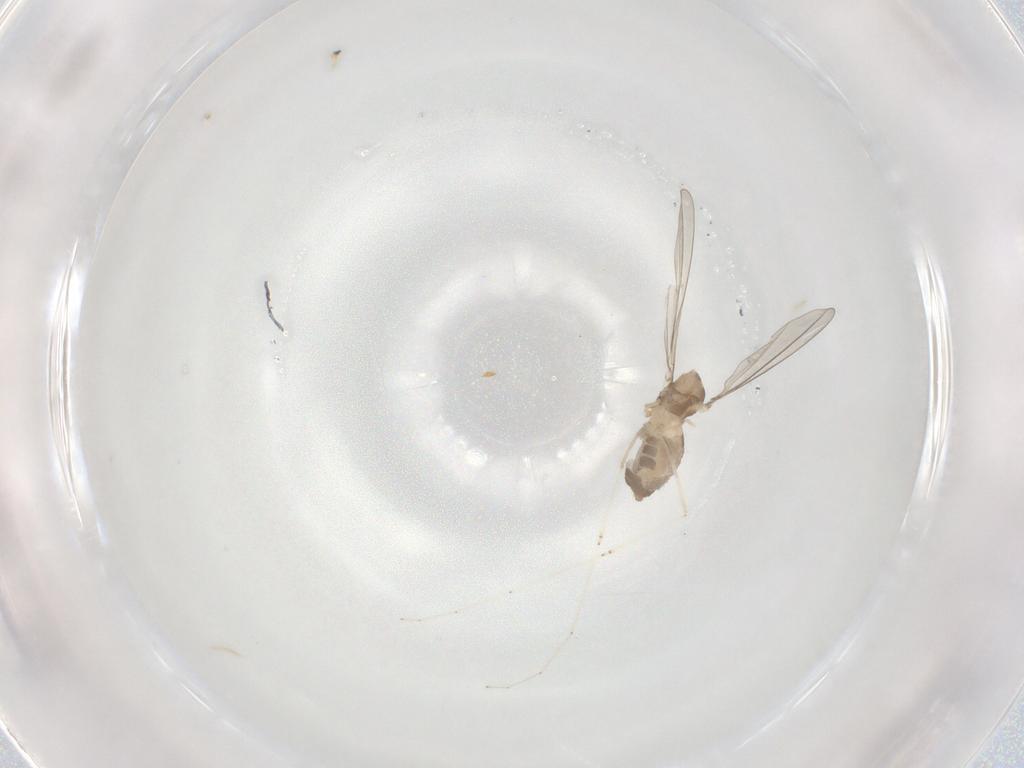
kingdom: Animalia
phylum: Arthropoda
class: Insecta
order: Diptera
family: Cecidomyiidae
